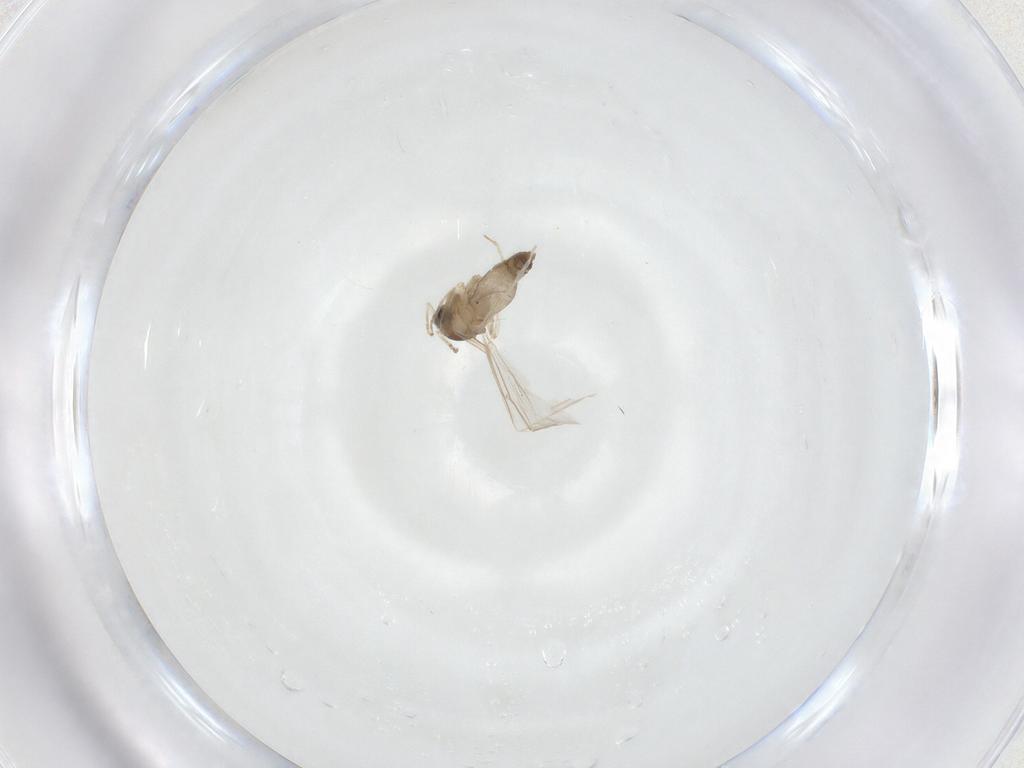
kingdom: Animalia
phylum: Arthropoda
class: Insecta
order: Diptera
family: Cecidomyiidae
